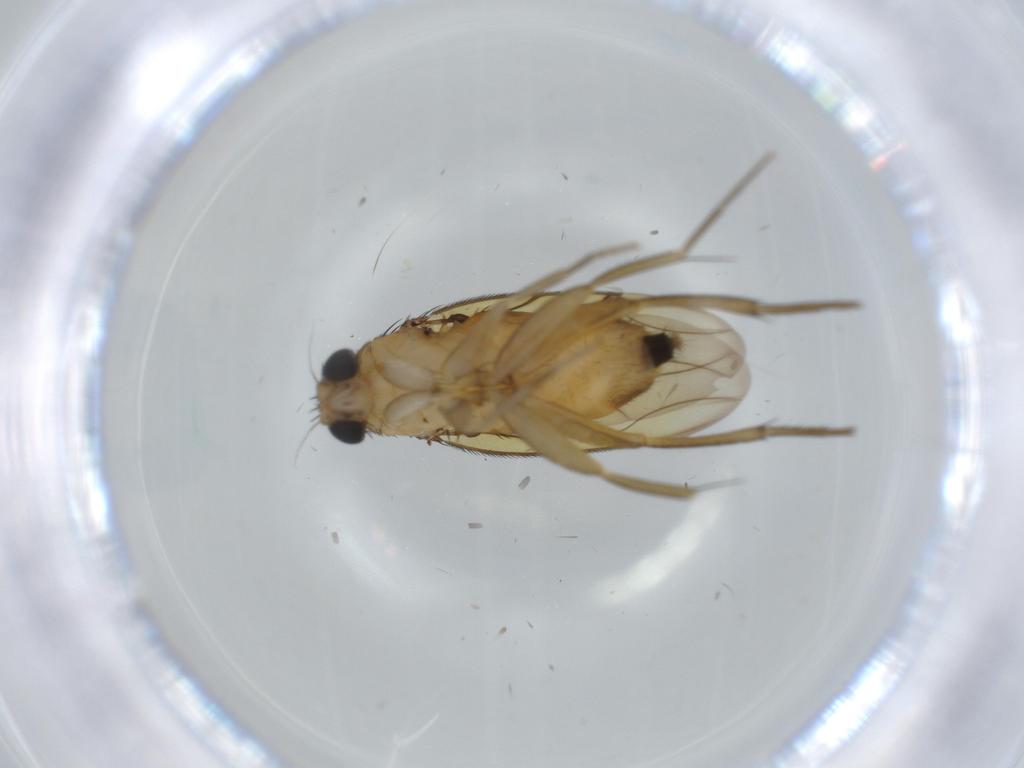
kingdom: Animalia
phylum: Arthropoda
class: Insecta
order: Diptera
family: Cecidomyiidae
